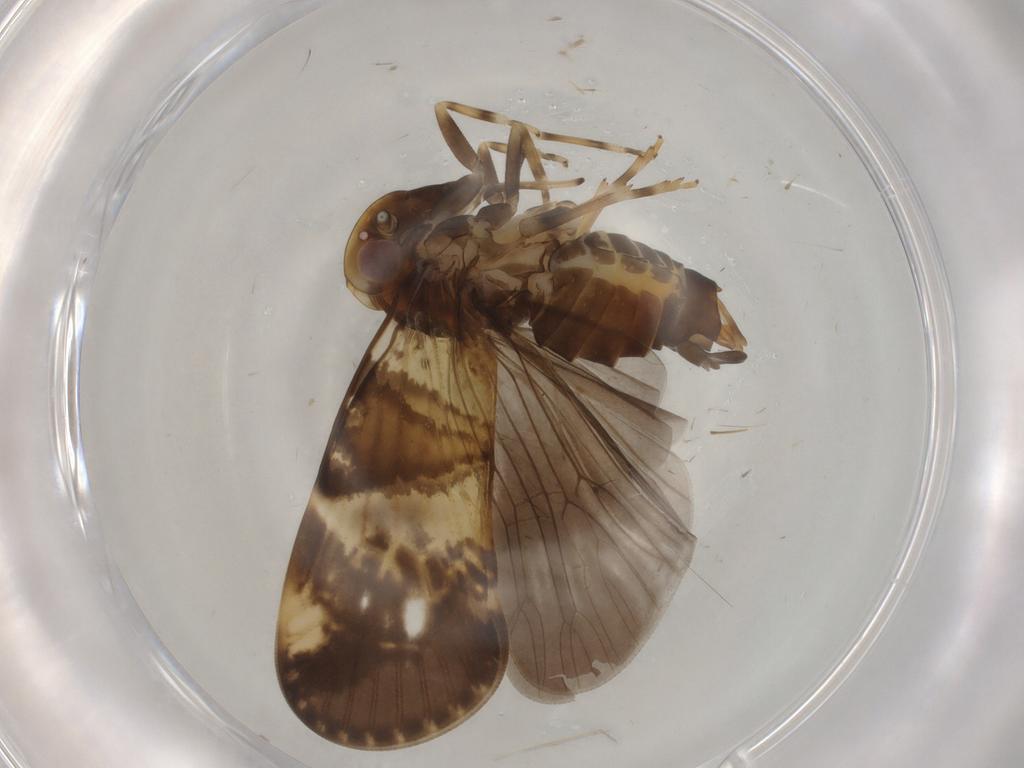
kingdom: Animalia
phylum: Arthropoda
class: Insecta
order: Hemiptera
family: Cixiidae
